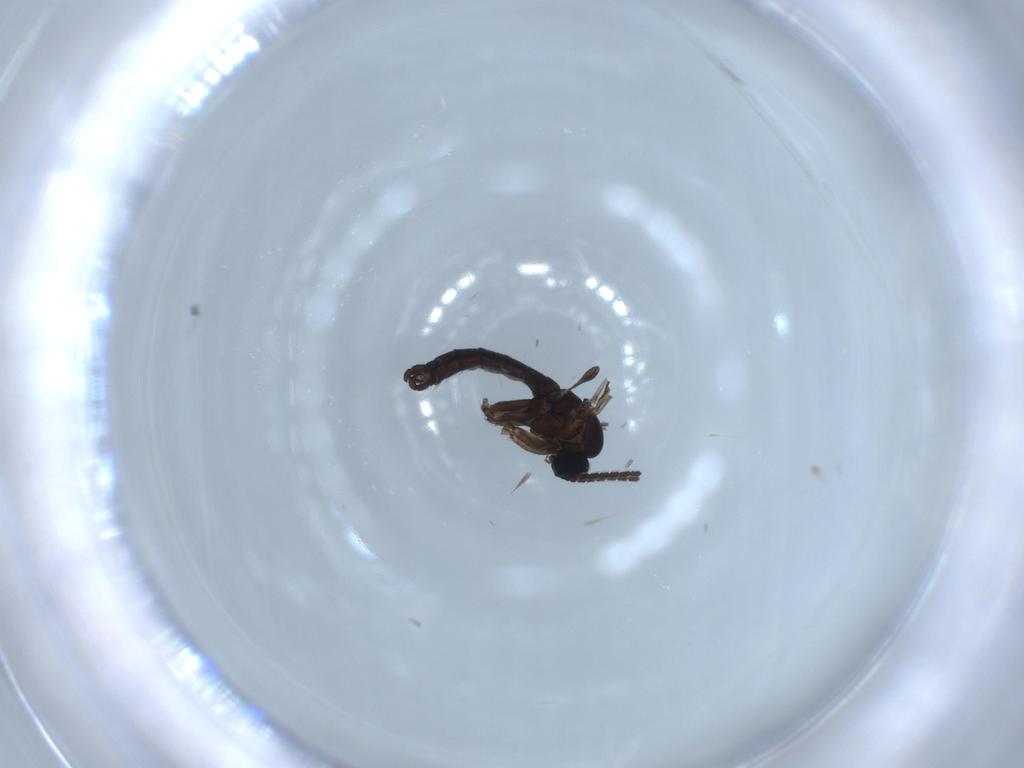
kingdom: Animalia
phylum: Arthropoda
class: Insecta
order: Diptera
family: Sciaridae
